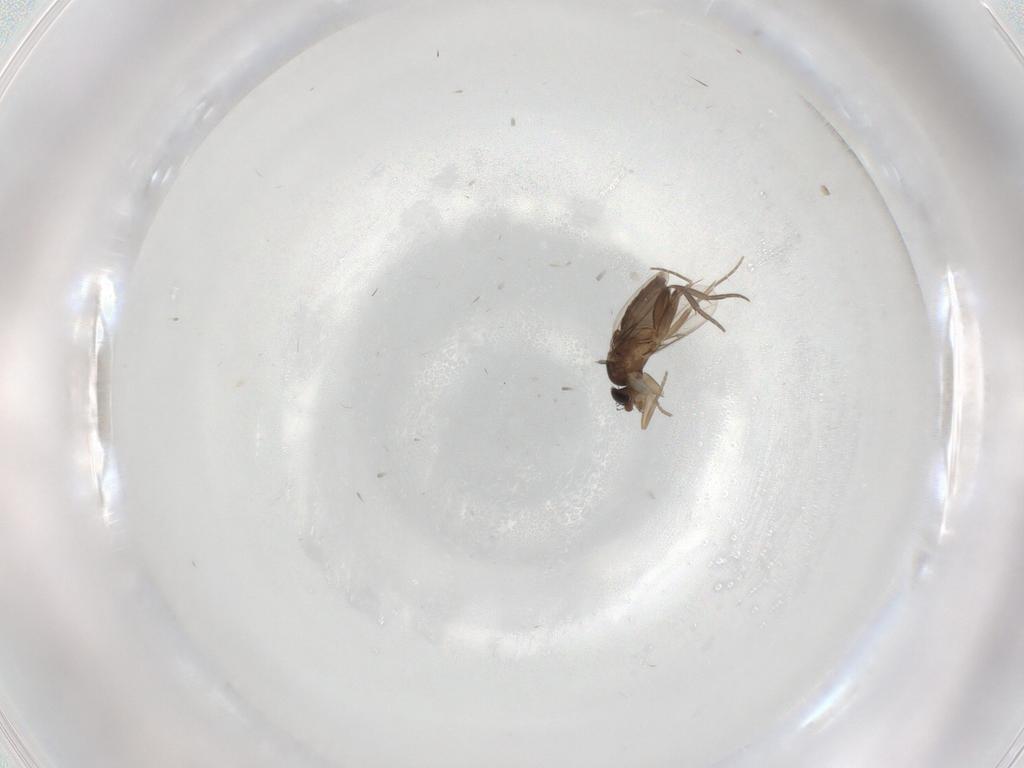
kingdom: Animalia
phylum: Arthropoda
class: Insecta
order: Diptera
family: Phoridae
